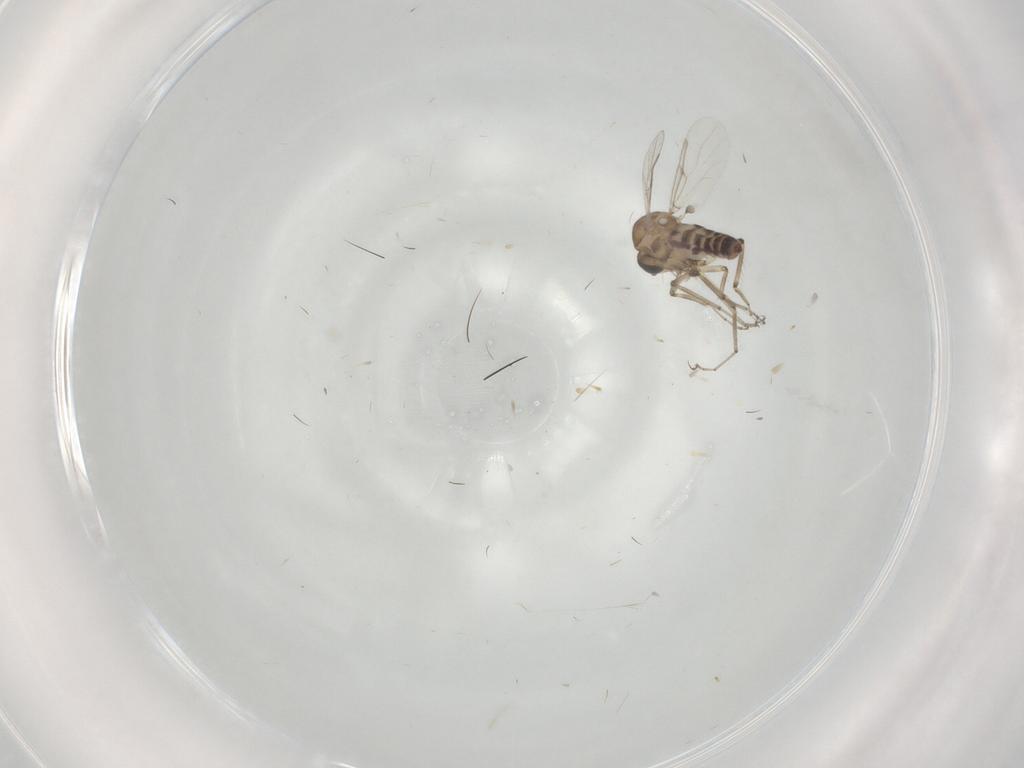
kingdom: Animalia
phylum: Arthropoda
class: Insecta
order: Diptera
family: Ceratopogonidae
